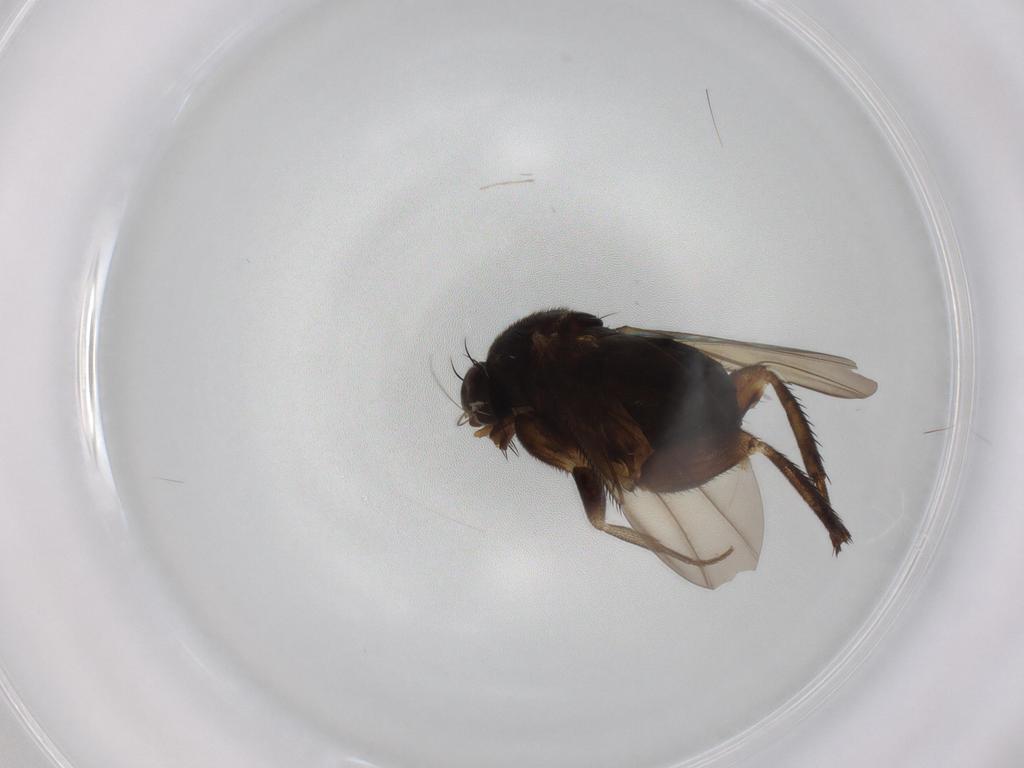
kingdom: Animalia
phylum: Arthropoda
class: Insecta
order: Diptera
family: Phoridae
